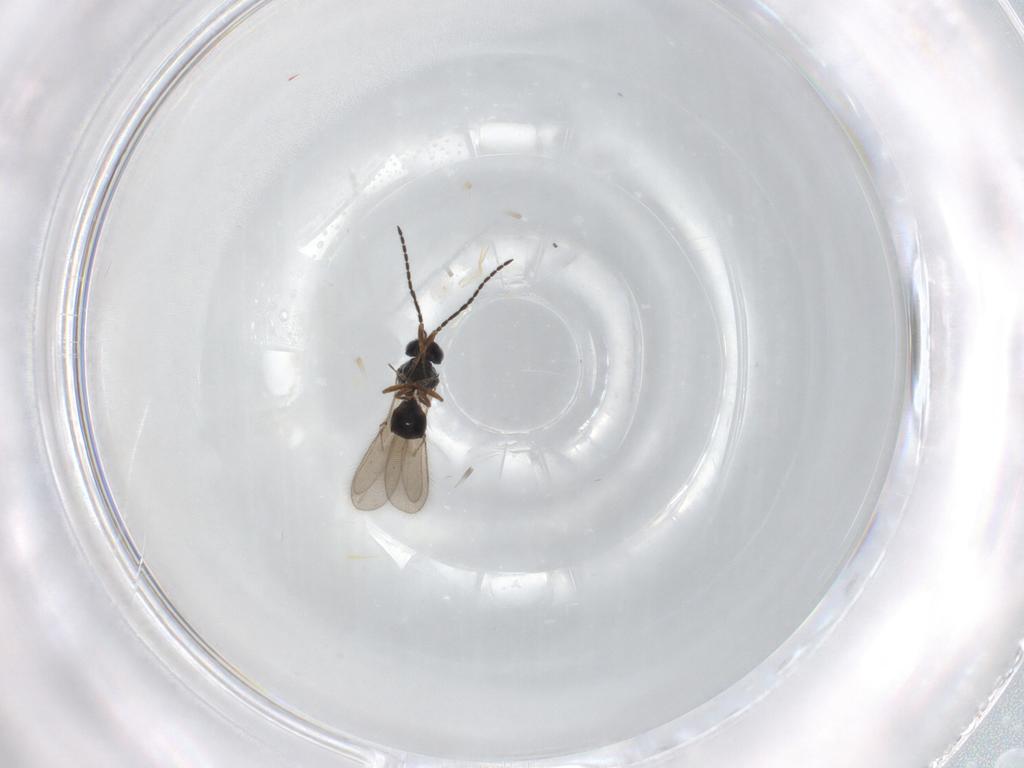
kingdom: Animalia
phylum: Arthropoda
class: Insecta
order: Hymenoptera
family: Scelionidae
